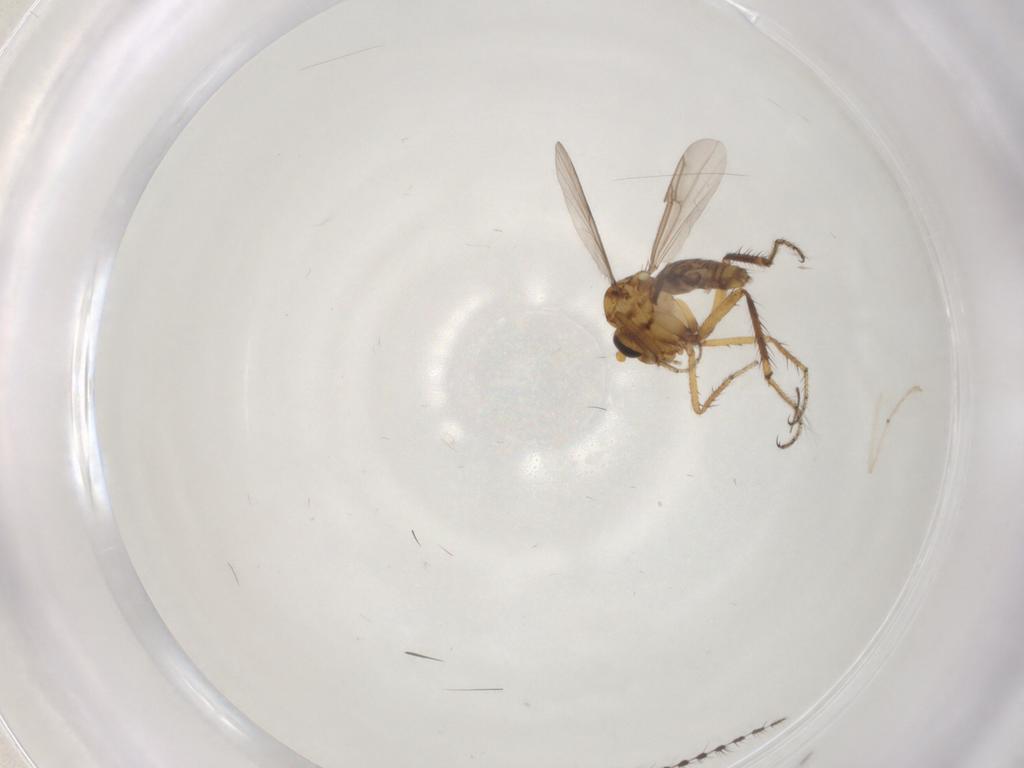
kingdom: Animalia
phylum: Arthropoda
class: Insecta
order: Diptera
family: Ceratopogonidae
